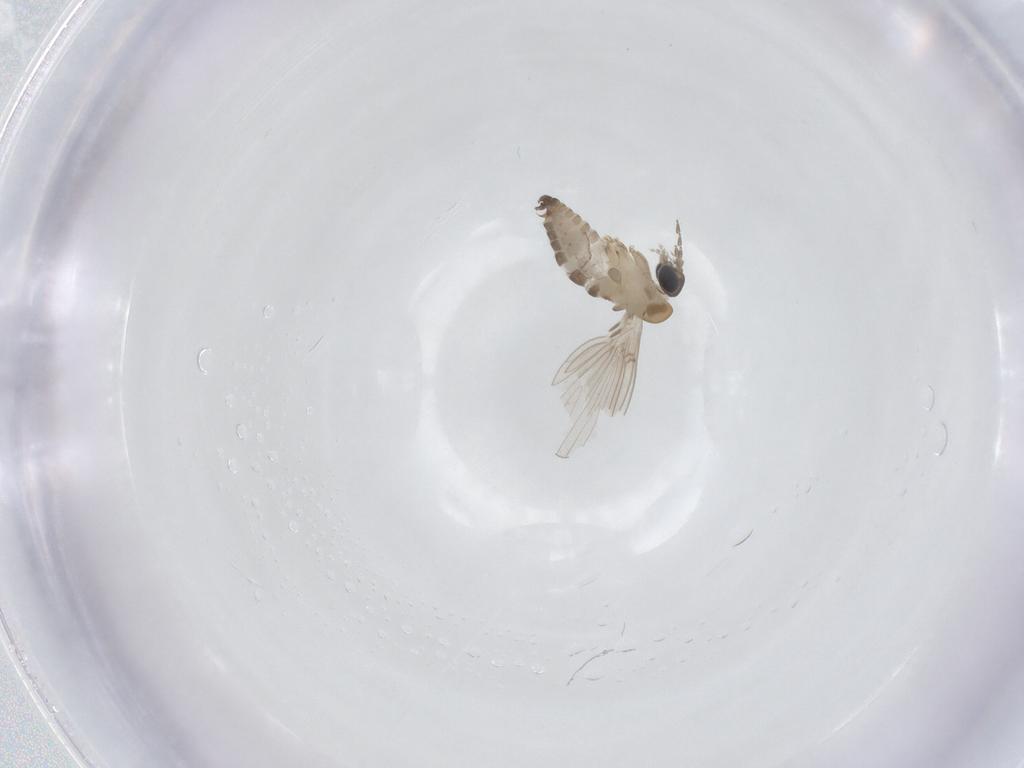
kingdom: Animalia
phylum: Arthropoda
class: Insecta
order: Diptera
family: Psychodidae
